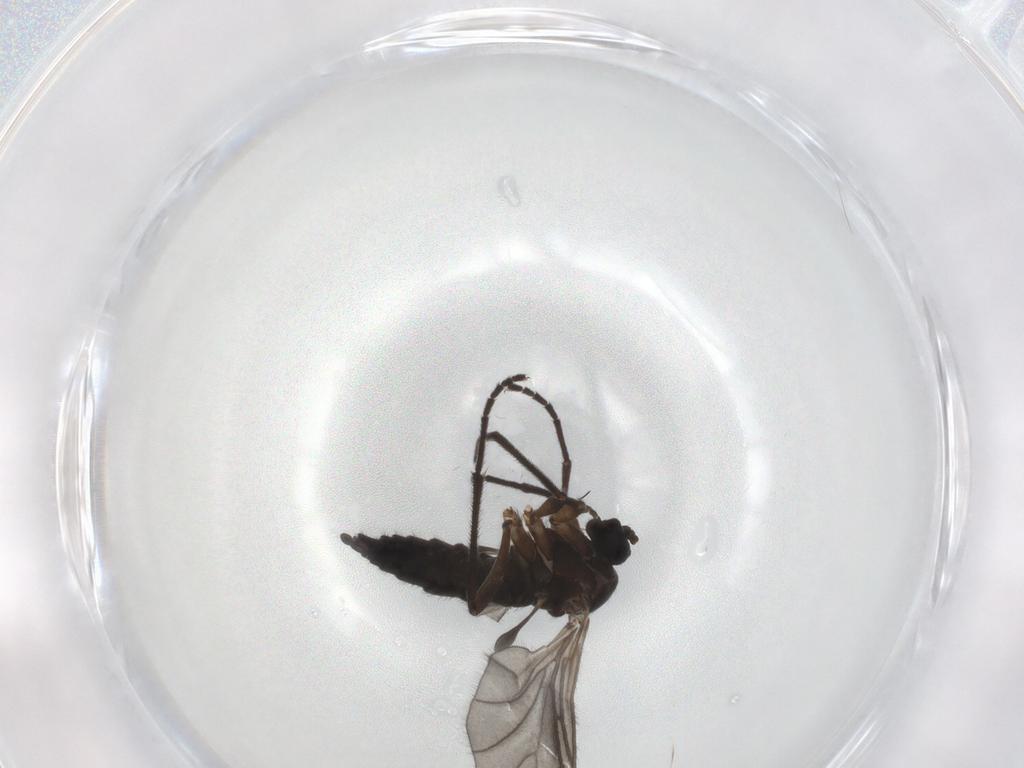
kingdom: Animalia
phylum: Arthropoda
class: Insecta
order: Diptera
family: Sciaridae
